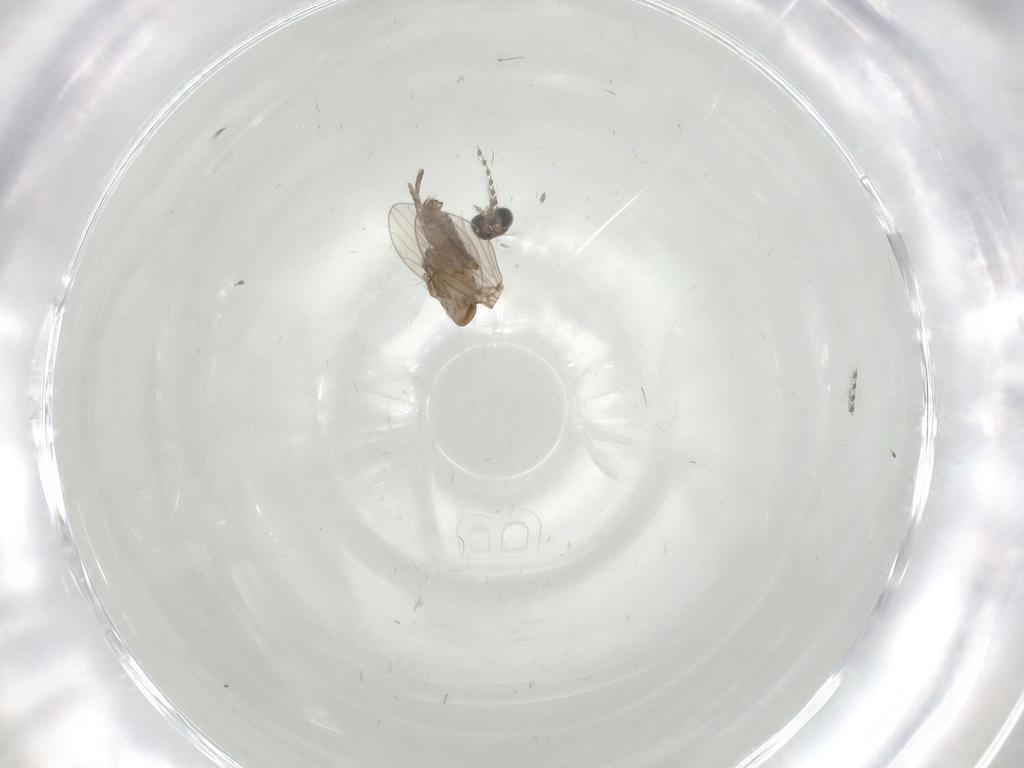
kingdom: Animalia
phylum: Arthropoda
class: Insecta
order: Diptera
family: Psychodidae
